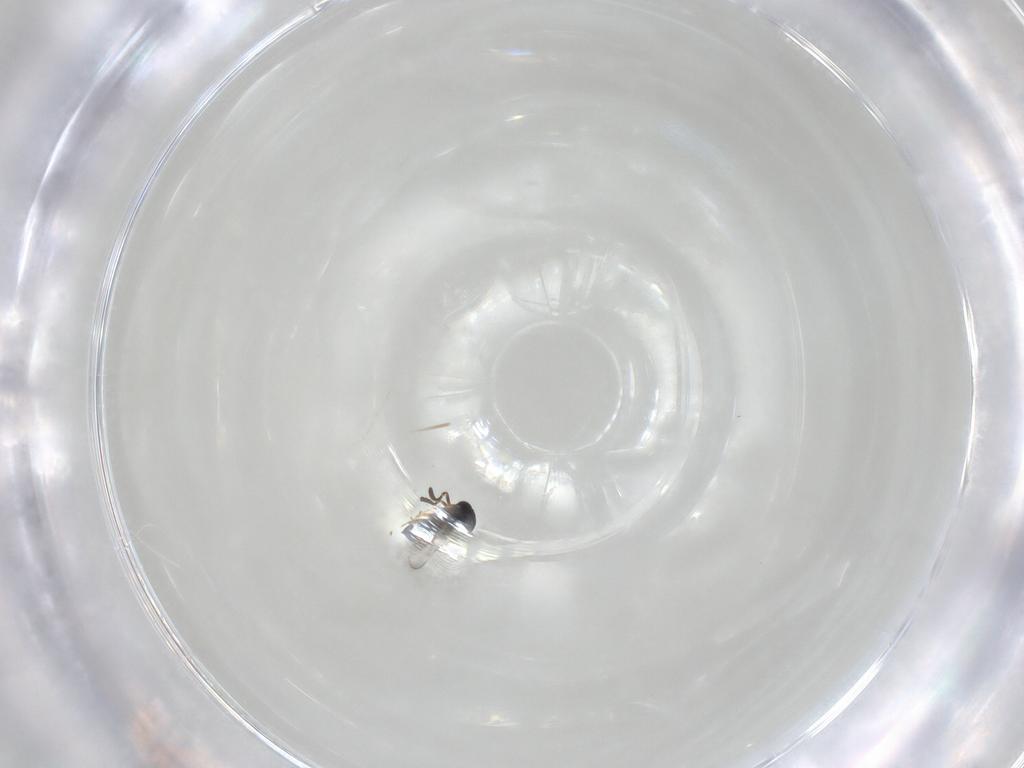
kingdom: Animalia
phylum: Arthropoda
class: Insecta
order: Hymenoptera
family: Scelionidae
